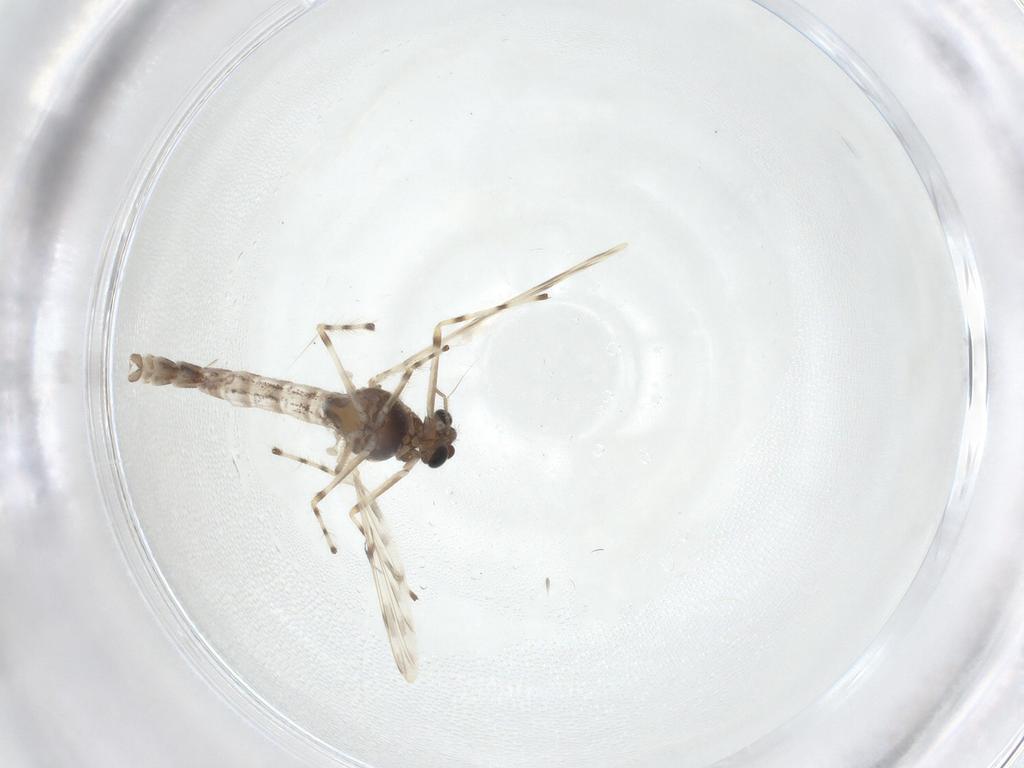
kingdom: Animalia
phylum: Arthropoda
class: Insecta
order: Diptera
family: Chironomidae
